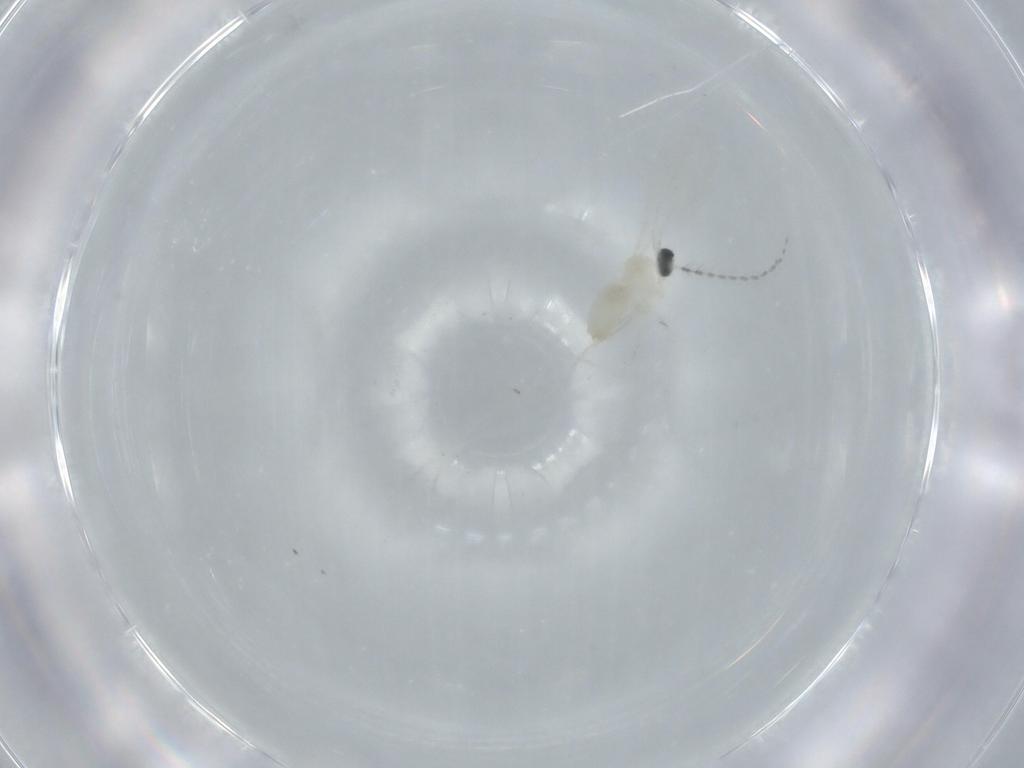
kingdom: Animalia
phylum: Arthropoda
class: Insecta
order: Diptera
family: Cecidomyiidae
